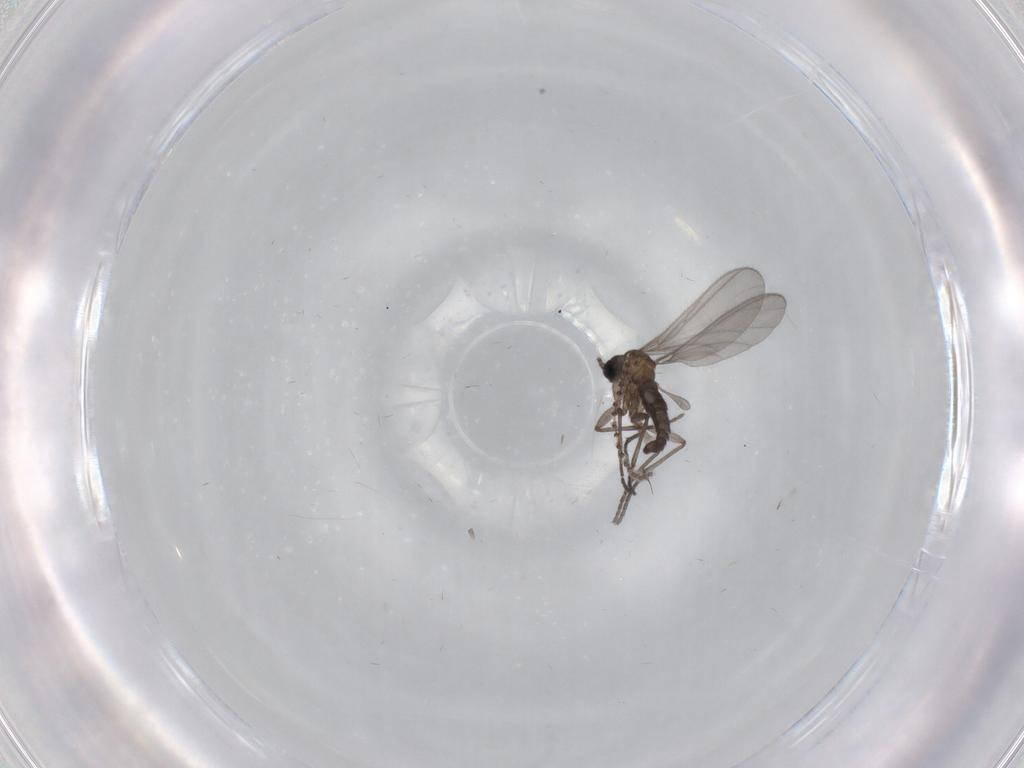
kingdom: Animalia
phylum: Arthropoda
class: Insecta
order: Diptera
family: Sciaridae
